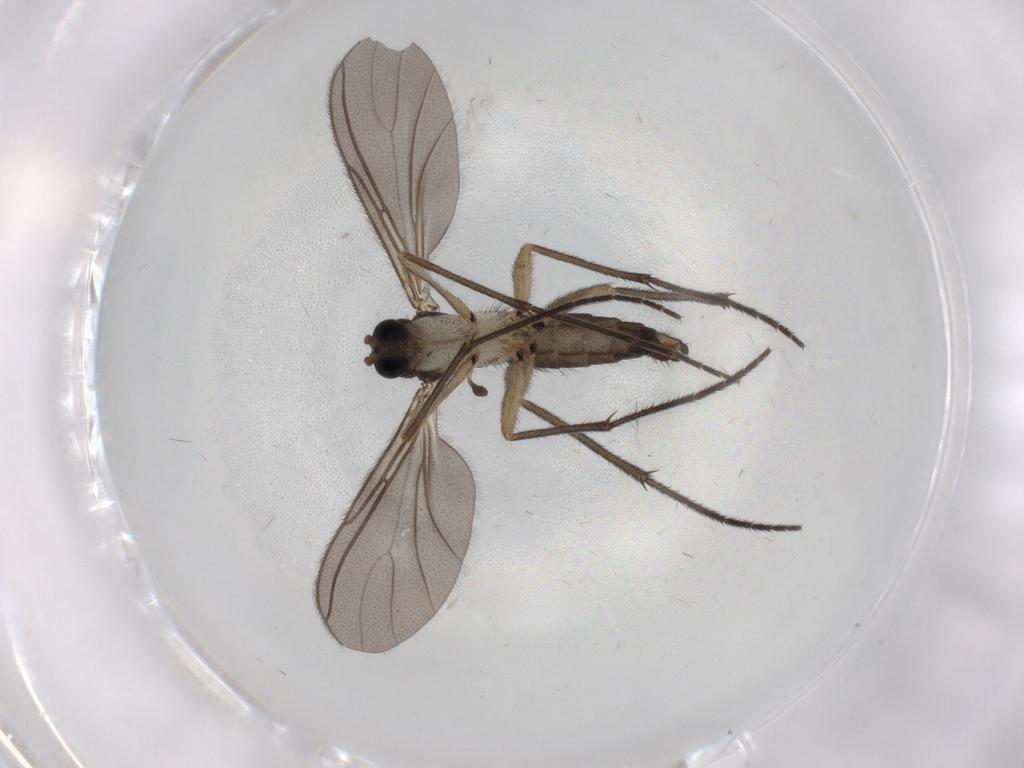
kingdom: Animalia
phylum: Arthropoda
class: Insecta
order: Diptera
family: Sciaridae
